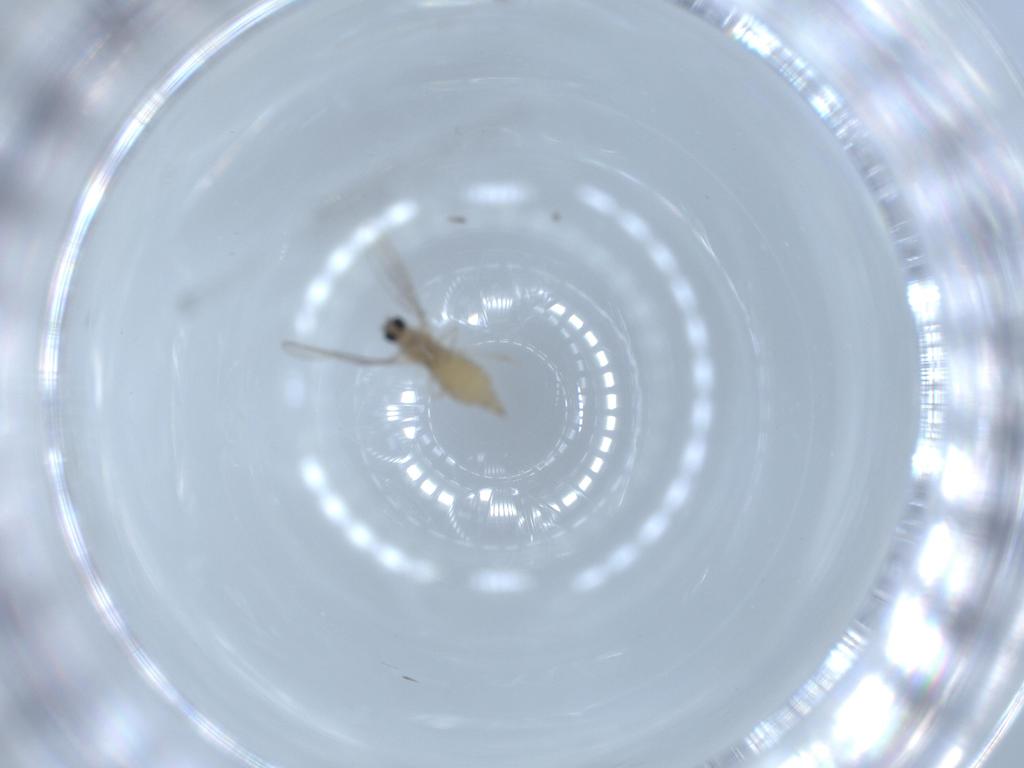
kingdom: Animalia
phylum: Arthropoda
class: Insecta
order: Diptera
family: Cecidomyiidae
